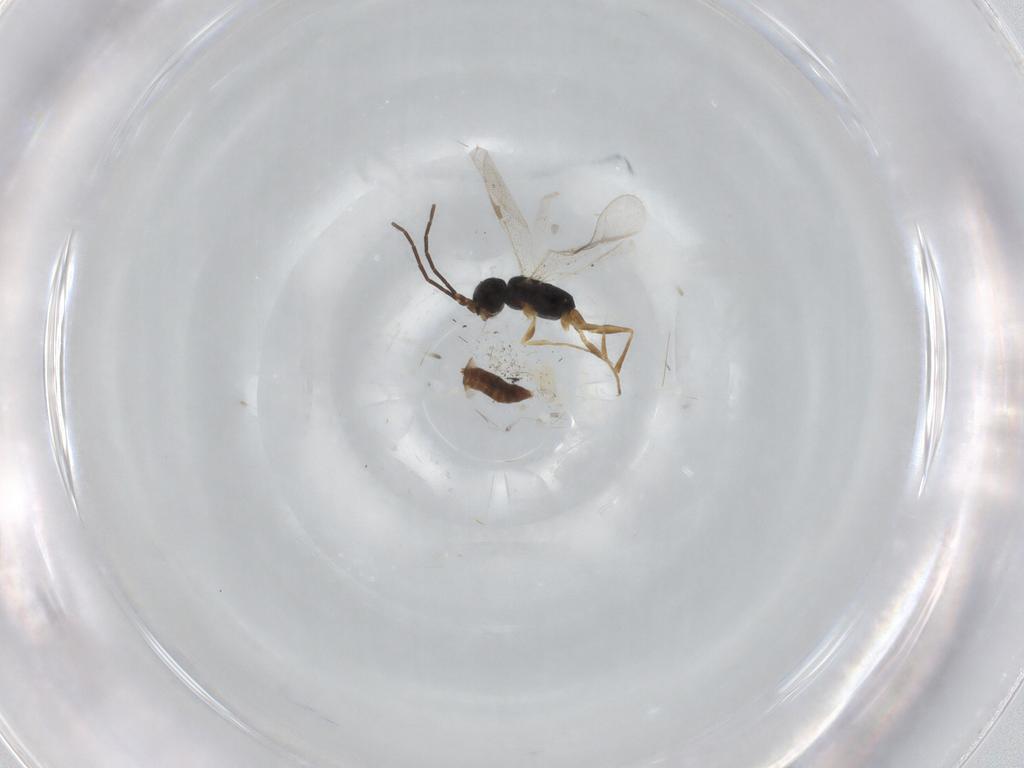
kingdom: Animalia
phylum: Arthropoda
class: Insecta
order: Hymenoptera
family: Dryinidae
